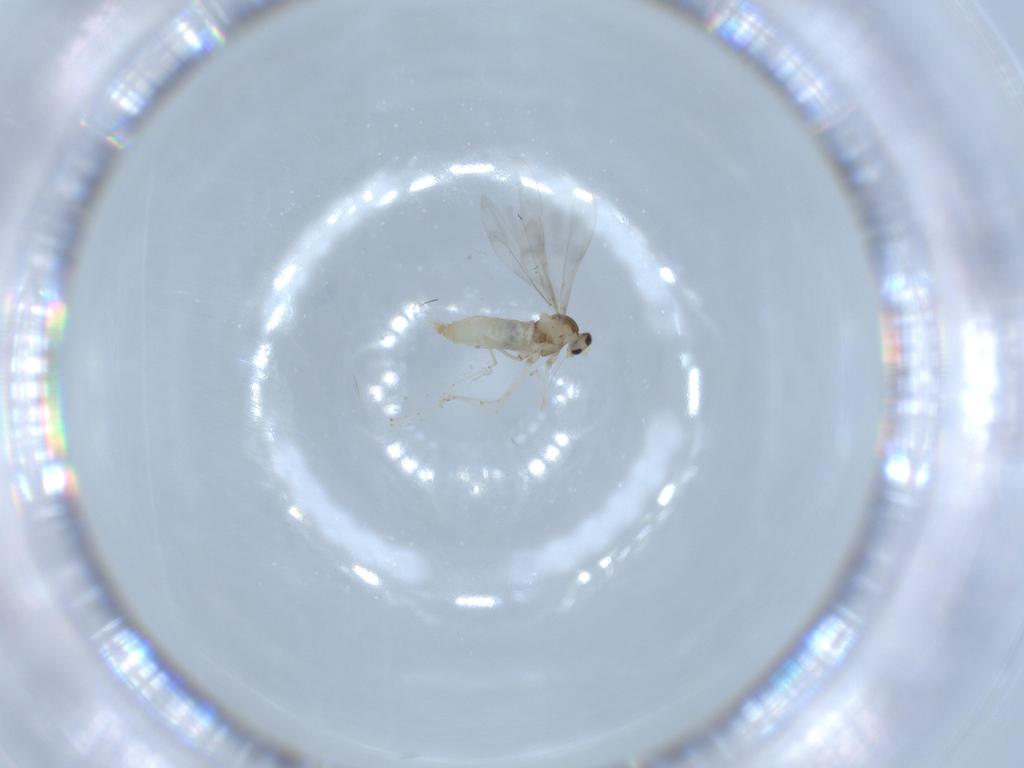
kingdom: Animalia
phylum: Arthropoda
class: Insecta
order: Diptera
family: Cecidomyiidae
